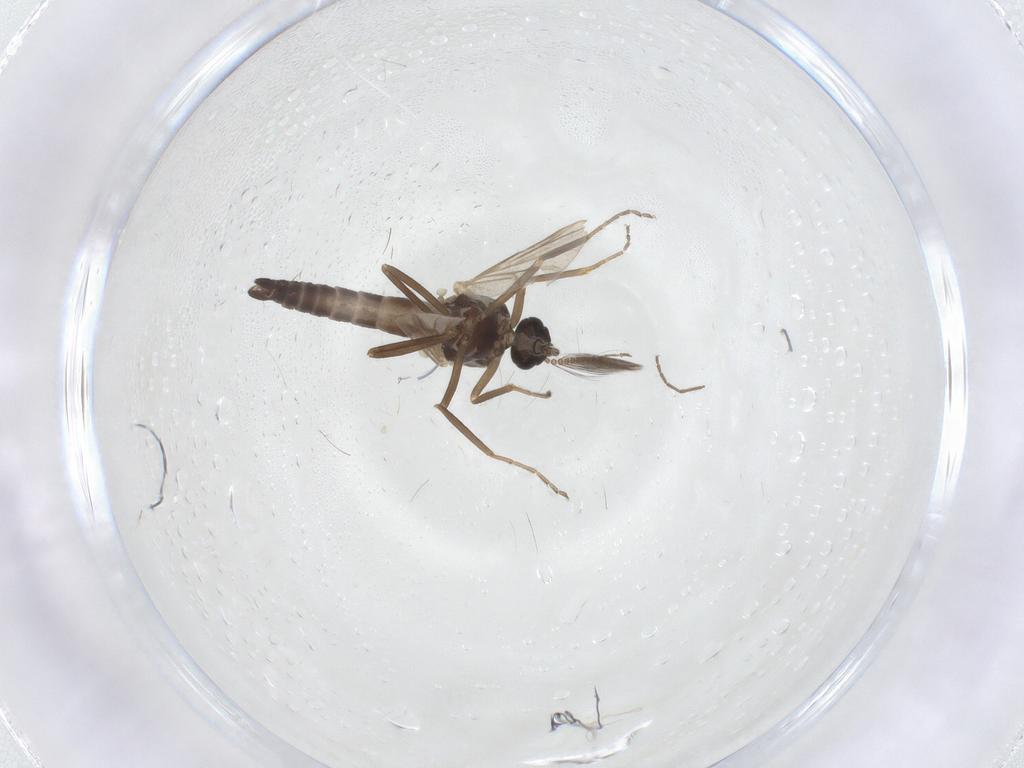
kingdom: Animalia
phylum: Arthropoda
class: Insecta
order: Diptera
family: Ceratopogonidae
